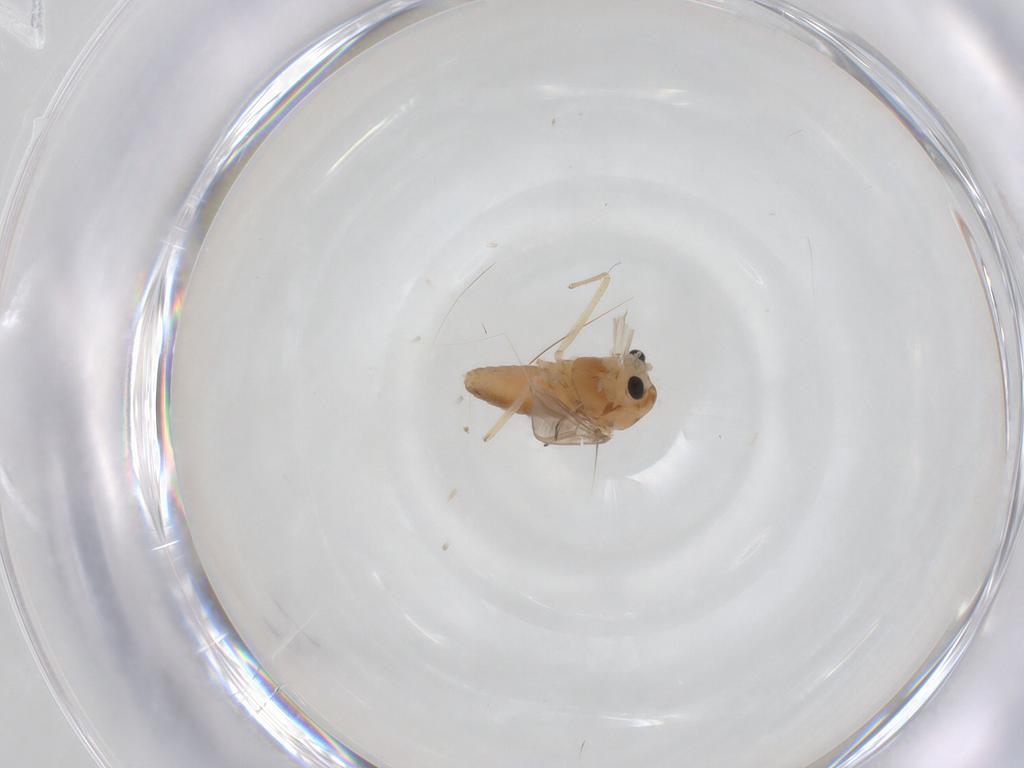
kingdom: Animalia
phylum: Arthropoda
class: Insecta
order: Diptera
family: Chironomidae
